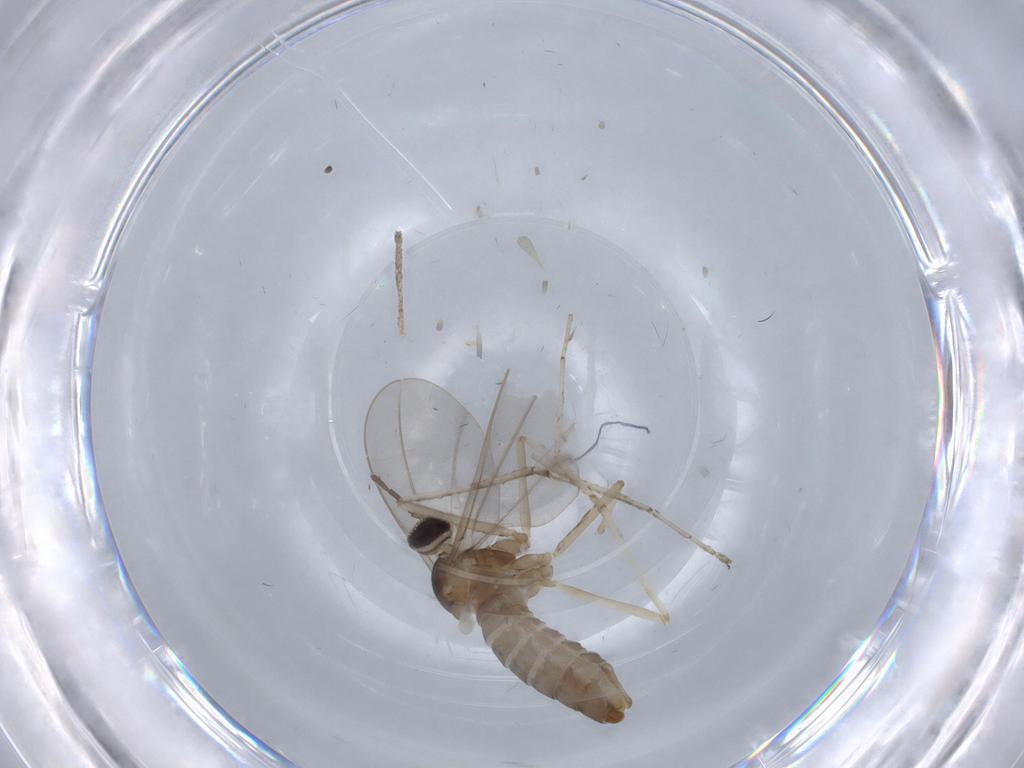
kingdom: Animalia
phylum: Arthropoda
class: Insecta
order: Diptera
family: Cecidomyiidae
